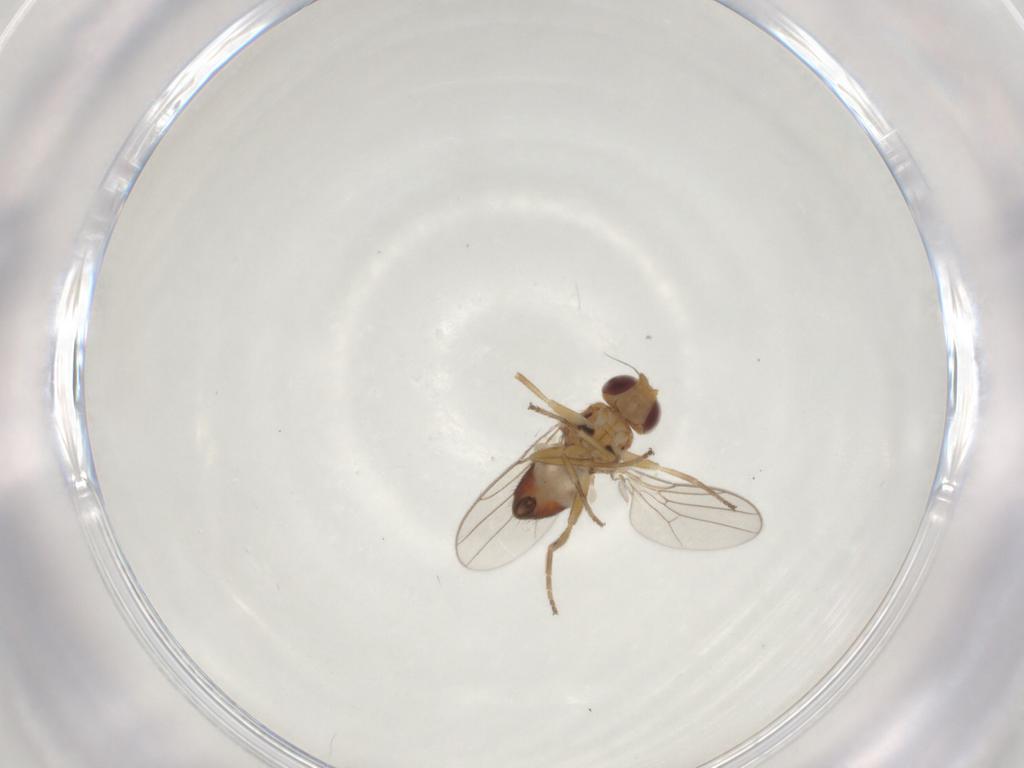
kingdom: Animalia
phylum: Arthropoda
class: Insecta
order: Diptera
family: Chloropidae
